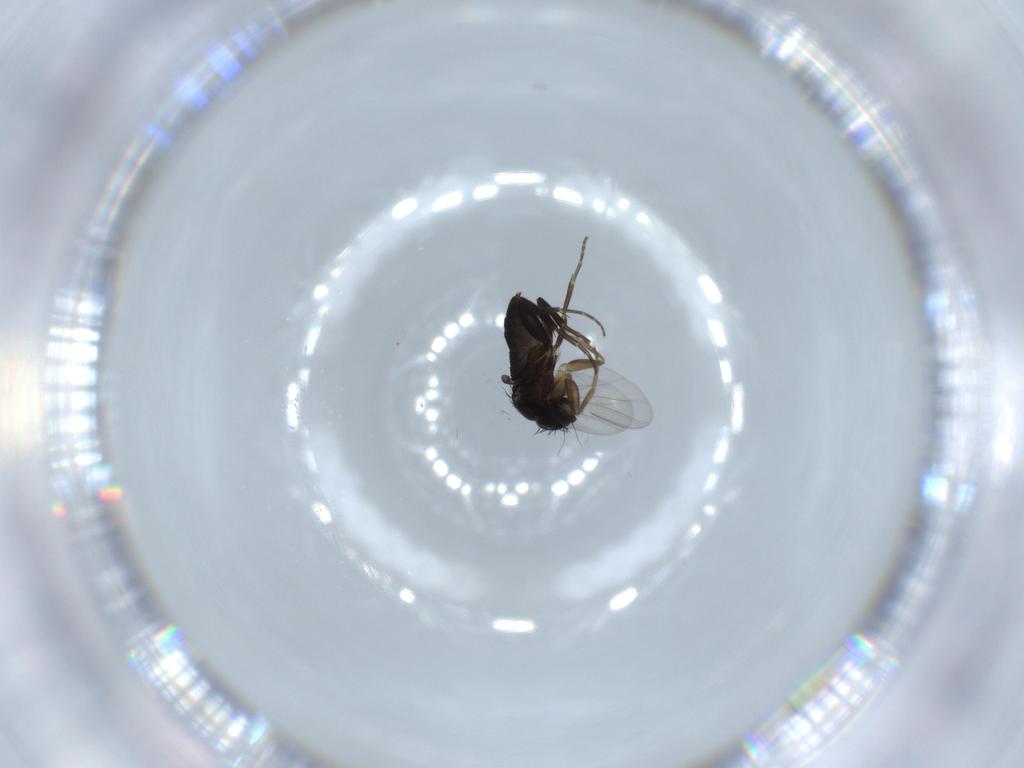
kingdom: Animalia
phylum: Arthropoda
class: Insecta
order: Diptera
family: Phoridae
